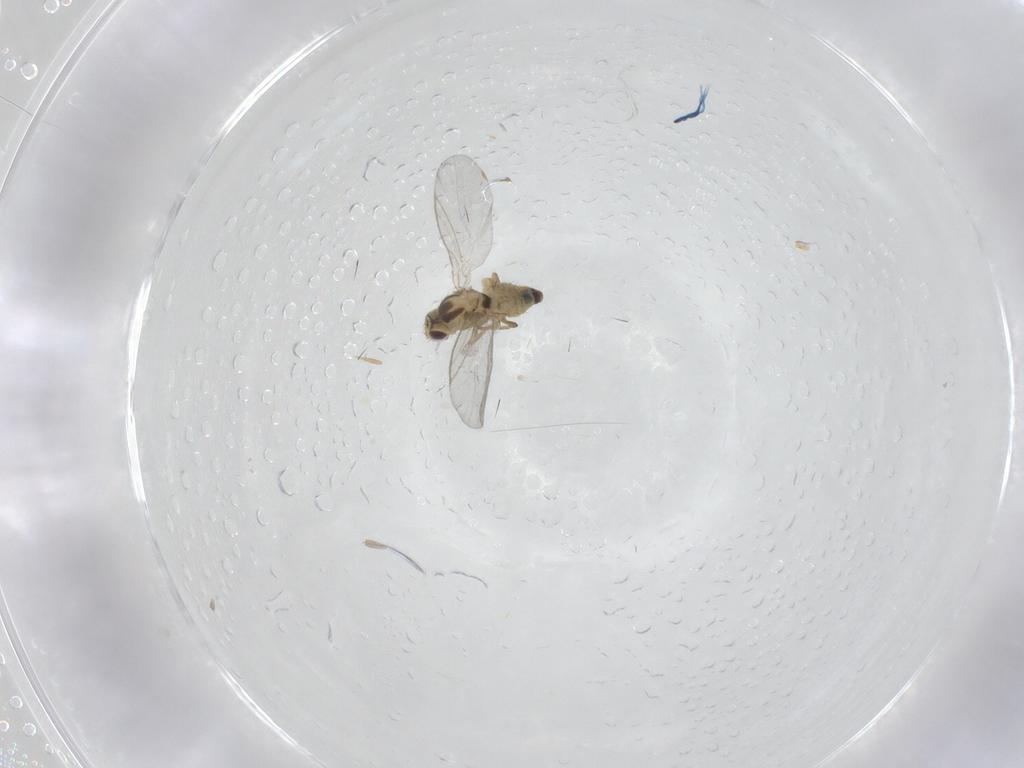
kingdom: Animalia
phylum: Arthropoda
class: Insecta
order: Diptera
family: Agromyzidae
